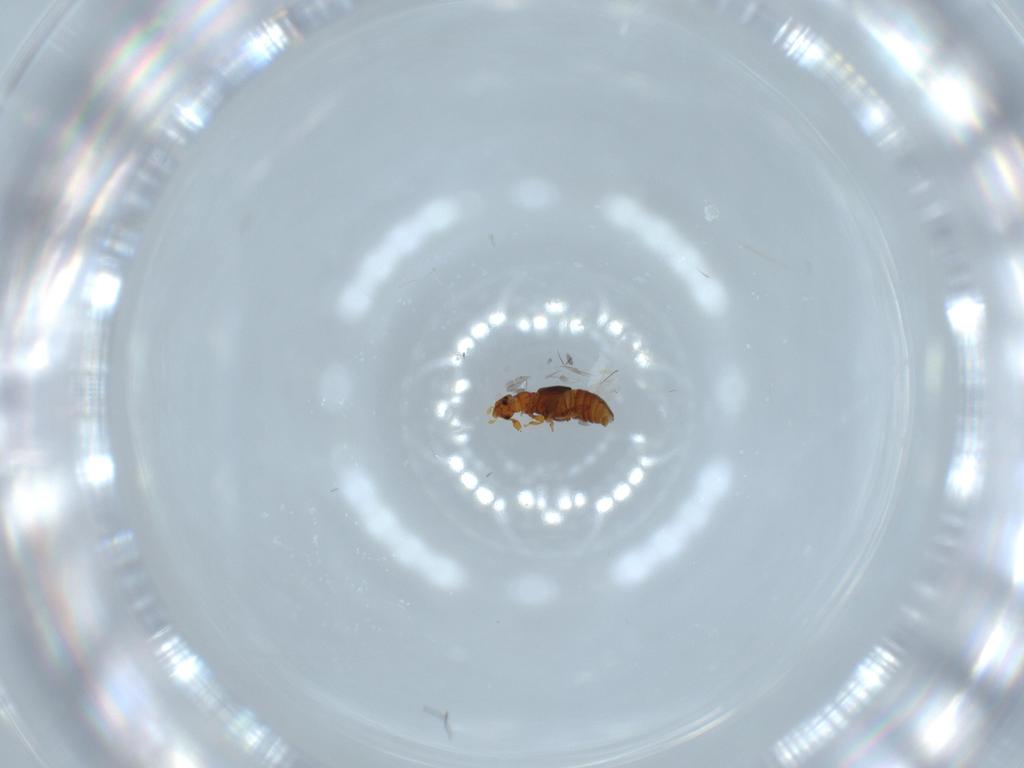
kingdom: Animalia
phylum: Arthropoda
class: Insecta
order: Coleoptera
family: Staphylinidae
